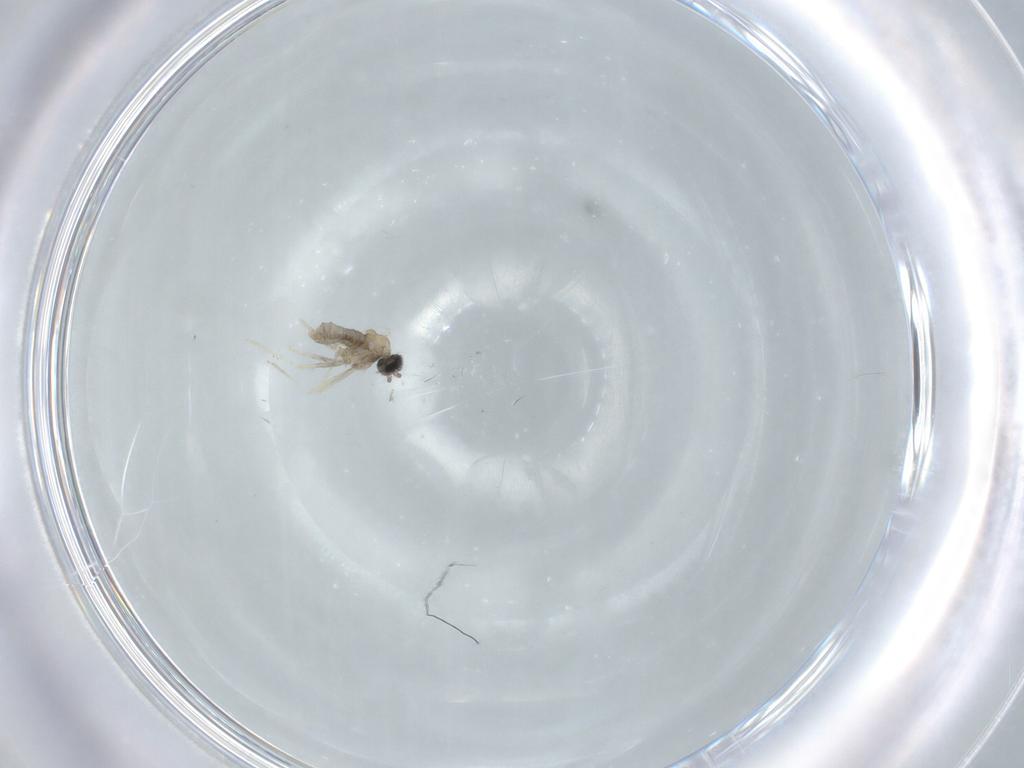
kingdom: Animalia
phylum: Arthropoda
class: Insecta
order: Diptera
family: Cecidomyiidae
